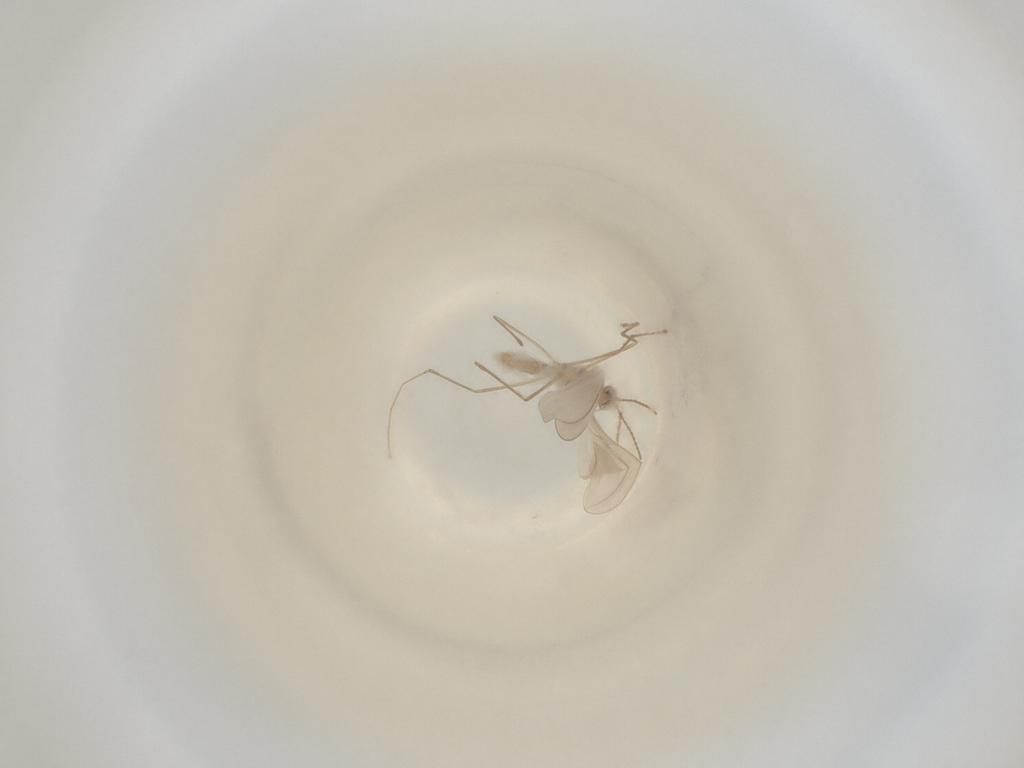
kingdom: Animalia
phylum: Arthropoda
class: Insecta
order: Diptera
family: Cecidomyiidae
